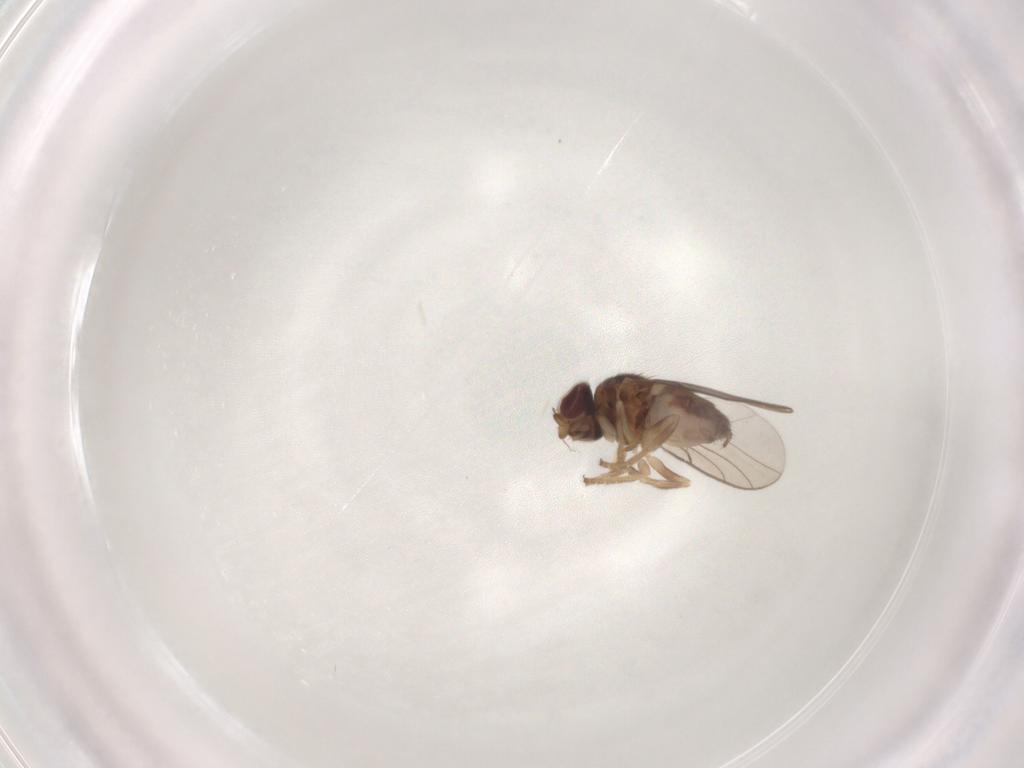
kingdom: Animalia
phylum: Arthropoda
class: Insecta
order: Diptera
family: Chloropidae
